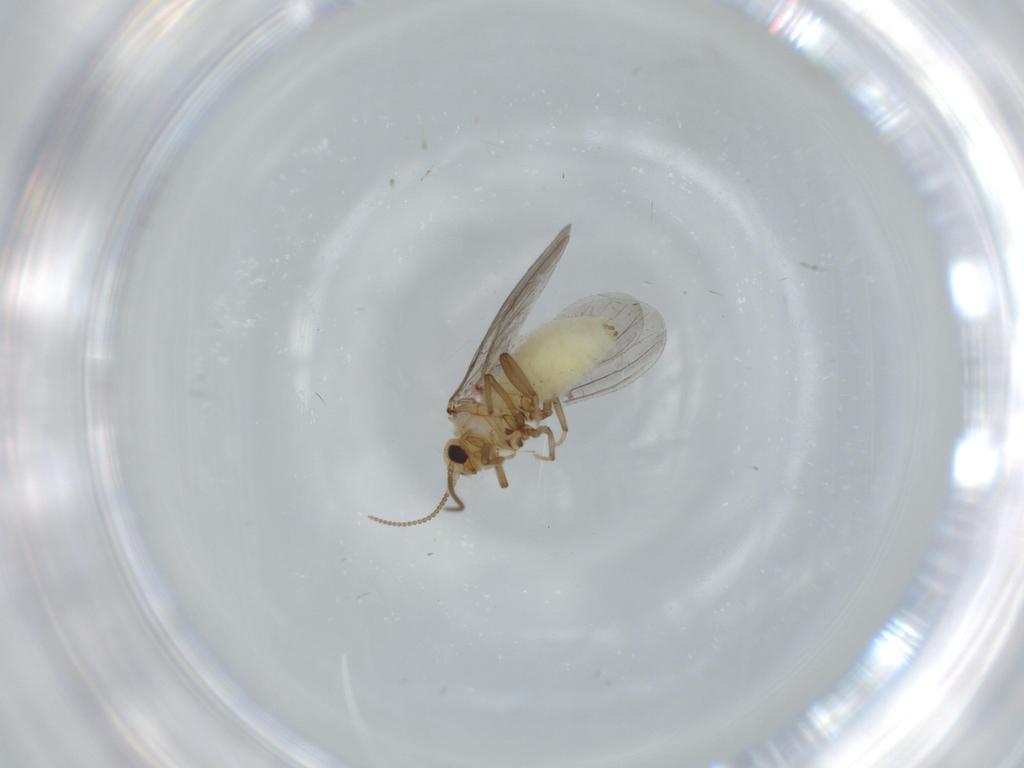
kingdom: Animalia
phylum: Arthropoda
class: Insecta
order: Neuroptera
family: Coniopterygidae
